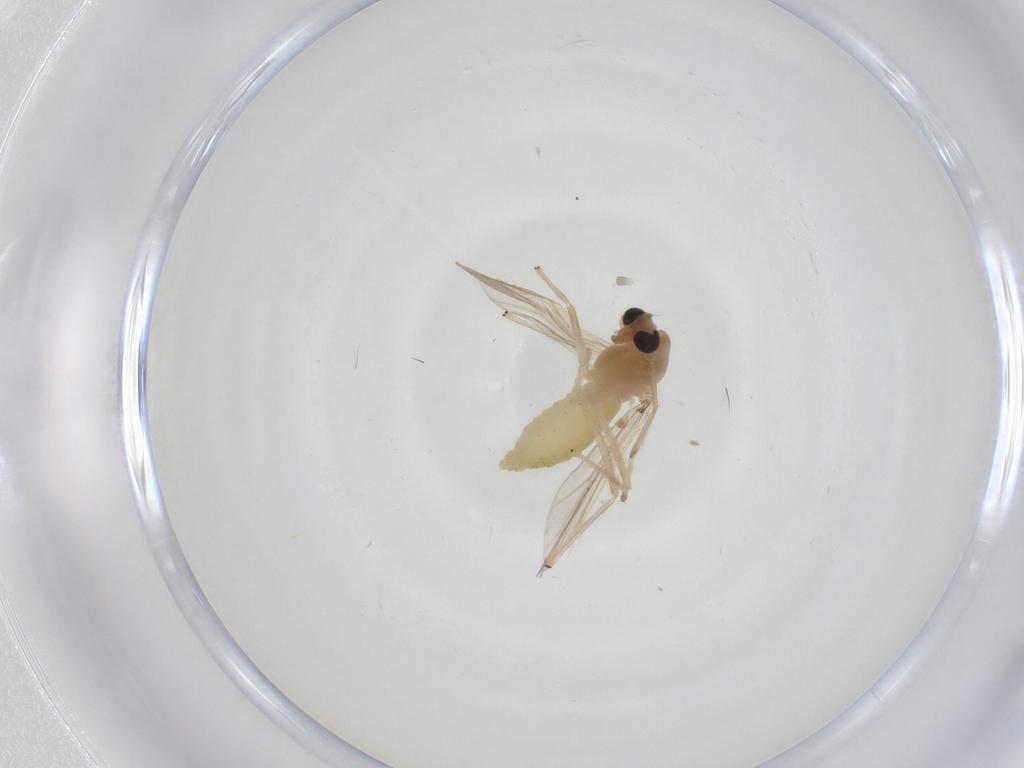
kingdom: Animalia
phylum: Arthropoda
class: Insecta
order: Diptera
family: Chironomidae
